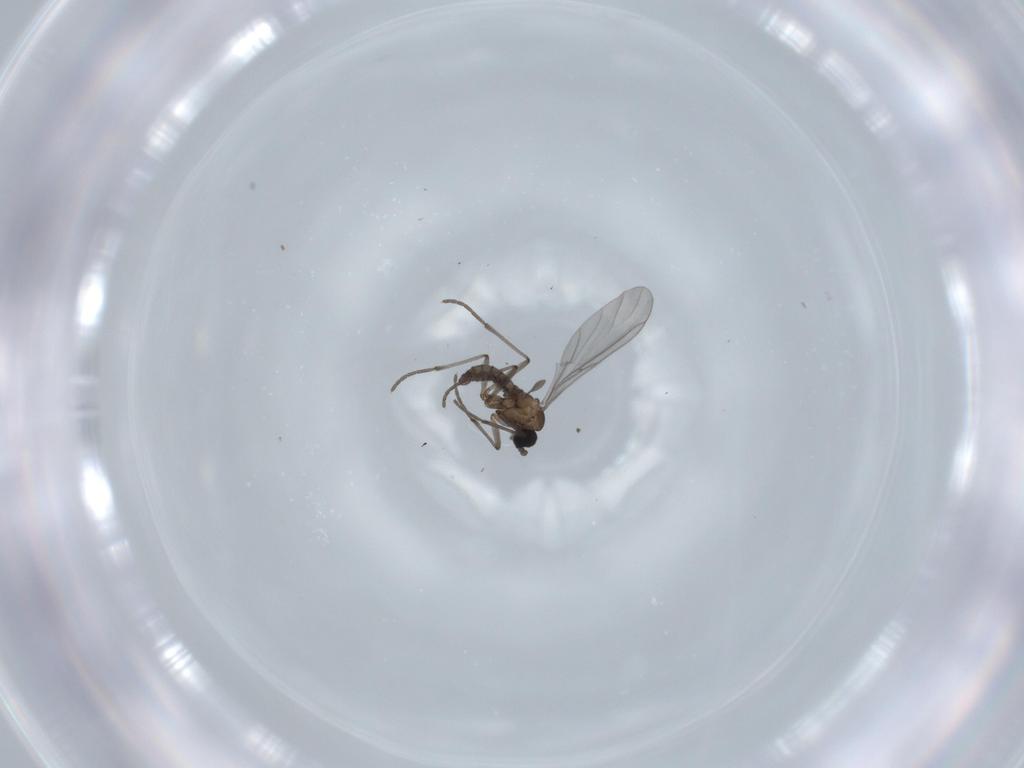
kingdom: Animalia
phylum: Arthropoda
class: Insecta
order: Diptera
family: Sciaridae
